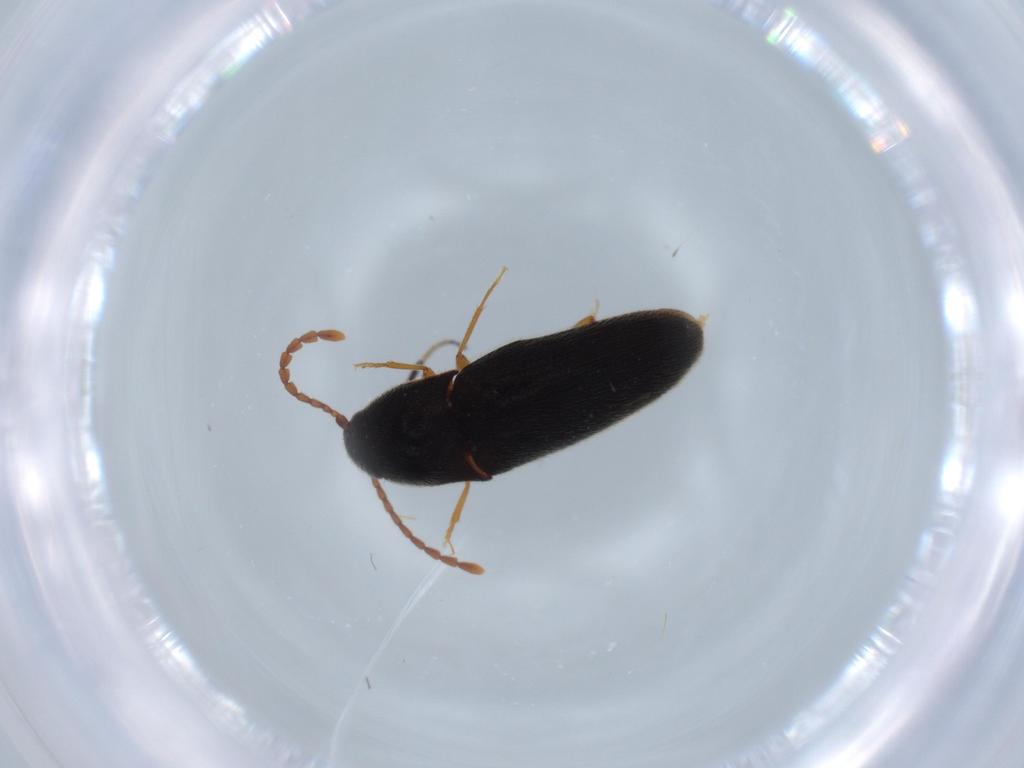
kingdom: Animalia
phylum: Arthropoda
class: Insecta
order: Coleoptera
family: Elateridae
